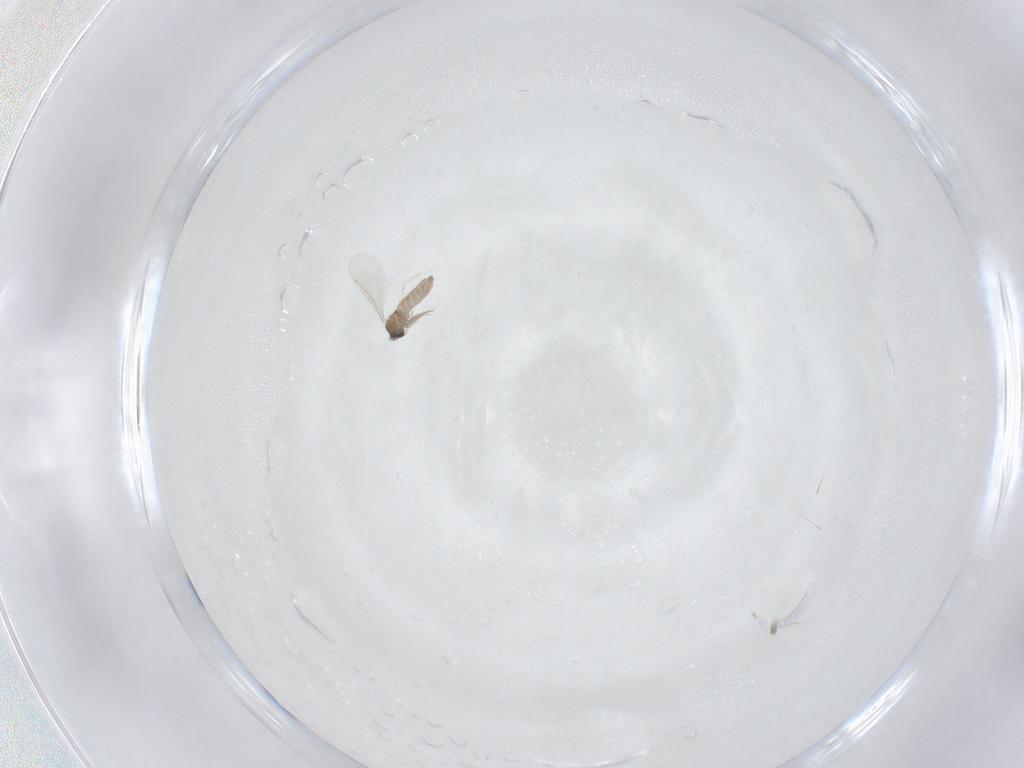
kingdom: Animalia
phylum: Arthropoda
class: Insecta
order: Diptera
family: Cecidomyiidae
